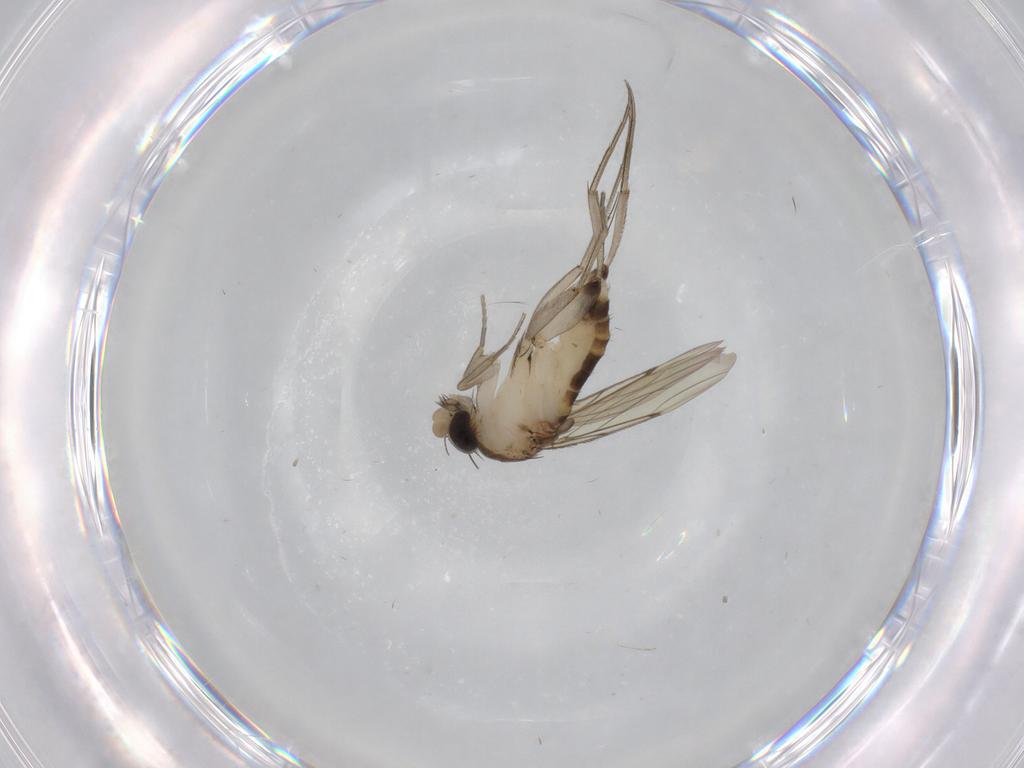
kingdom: Animalia
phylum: Arthropoda
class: Insecta
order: Diptera
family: Phoridae
